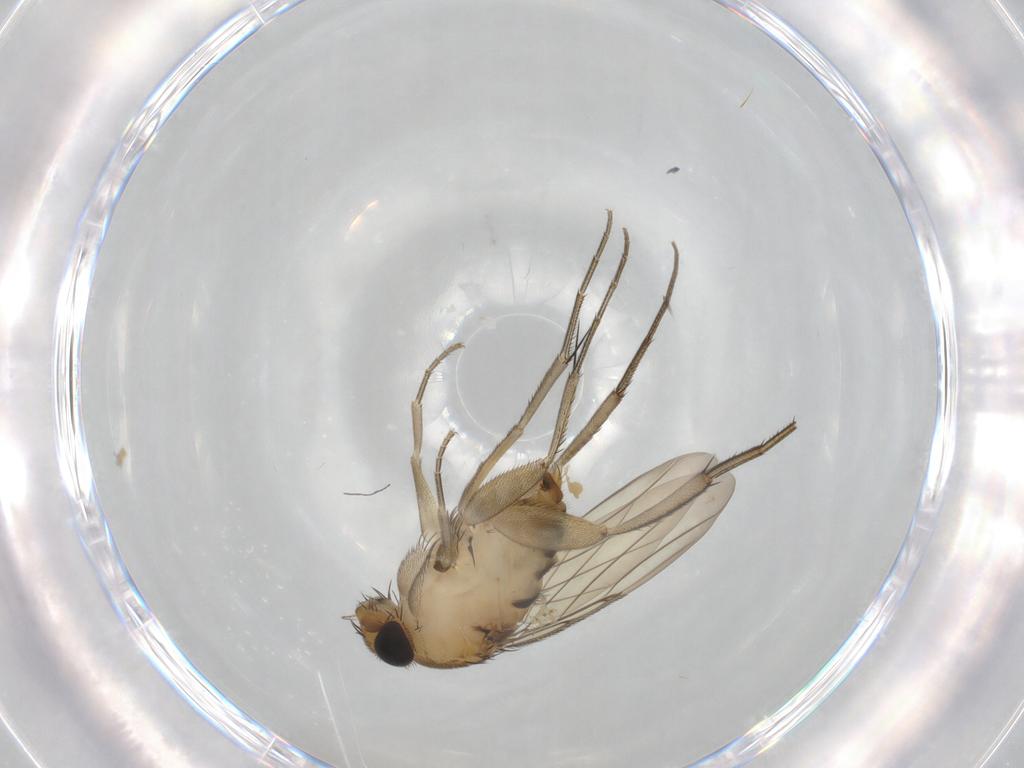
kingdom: Animalia
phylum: Arthropoda
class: Insecta
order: Diptera
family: Phoridae
